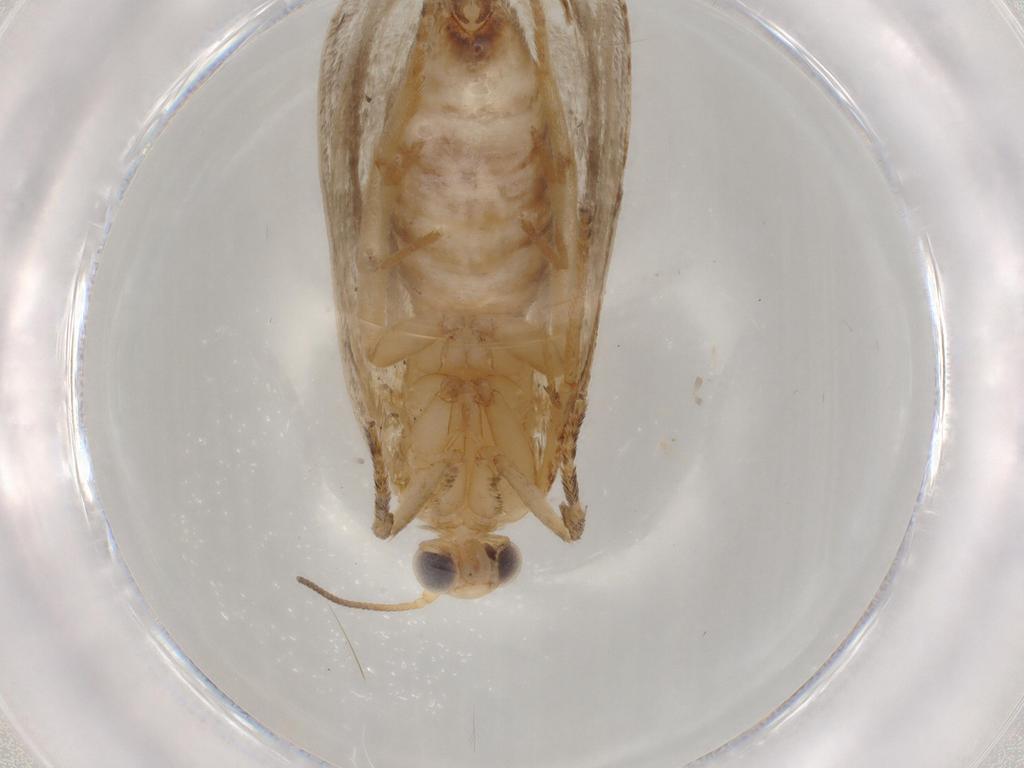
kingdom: Animalia
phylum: Arthropoda
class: Insecta
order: Lepidoptera
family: Tortricidae
